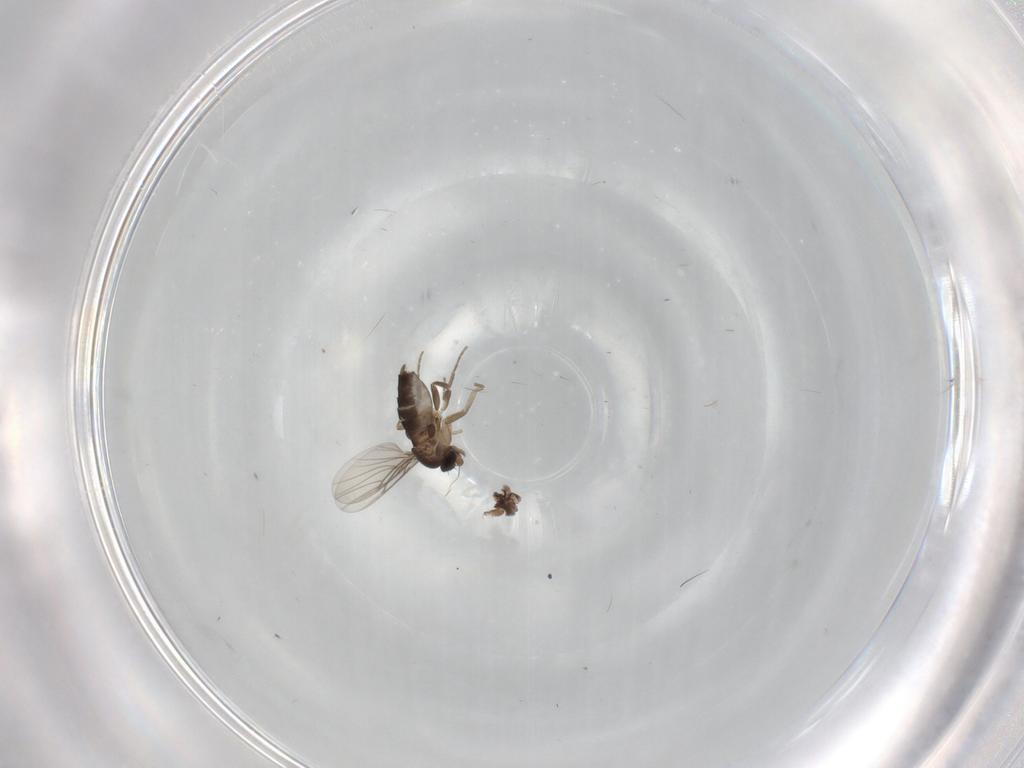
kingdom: Animalia
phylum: Arthropoda
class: Insecta
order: Diptera
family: Phoridae
